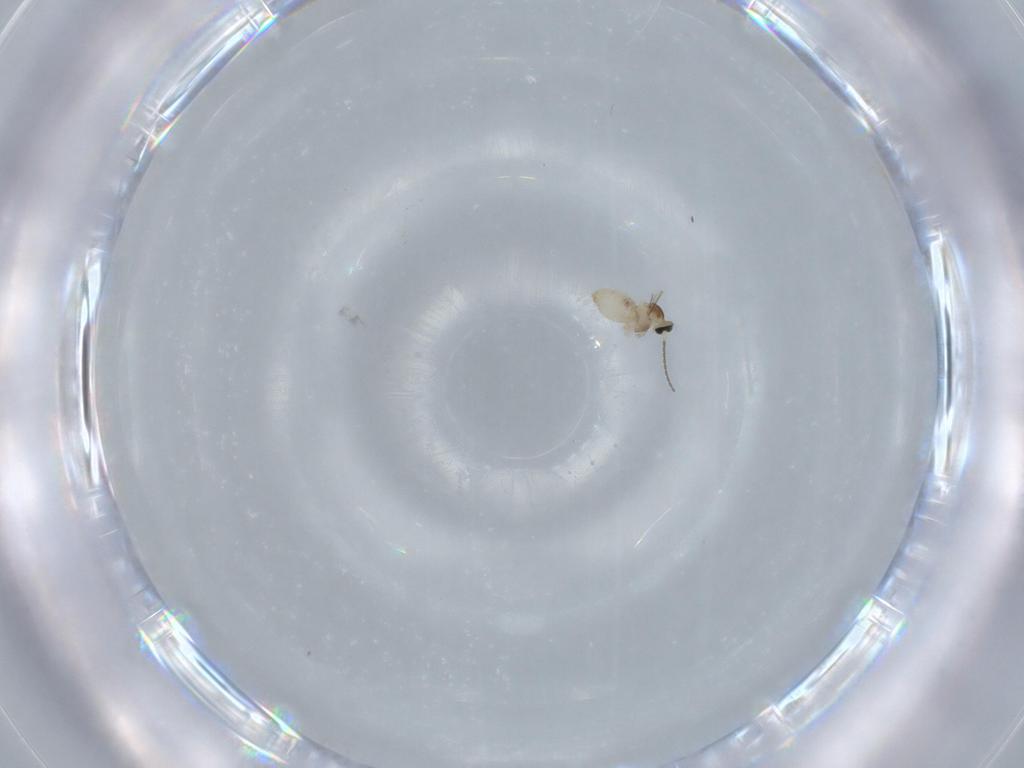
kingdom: Animalia
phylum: Arthropoda
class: Insecta
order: Diptera
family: Cecidomyiidae
